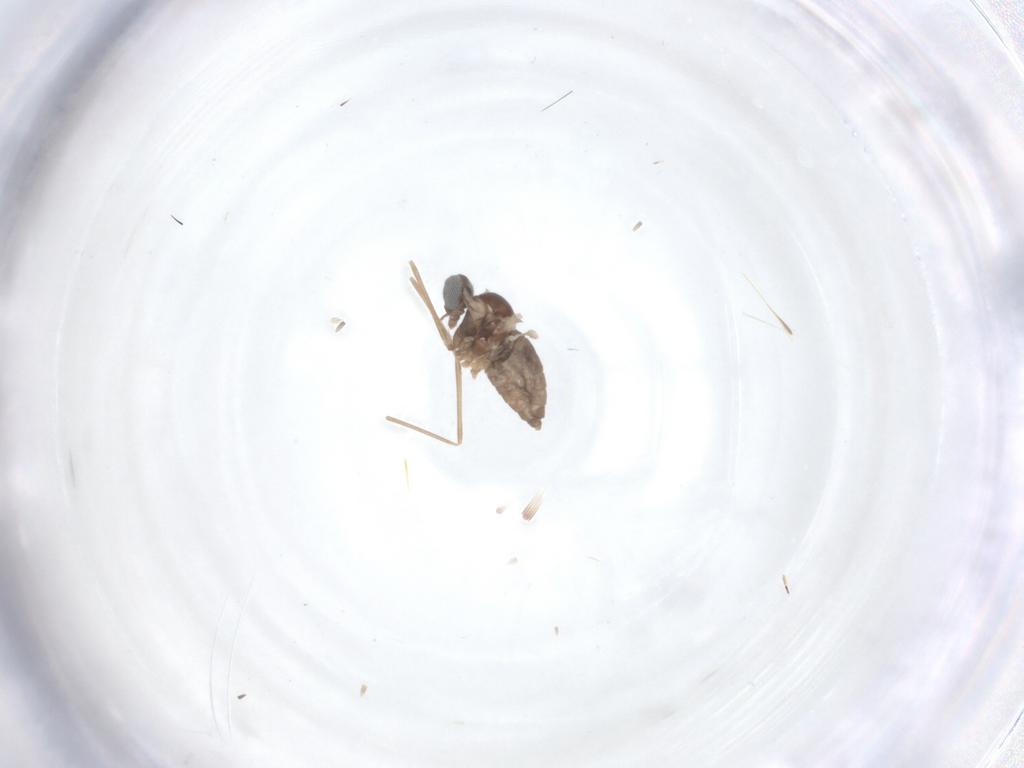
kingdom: Animalia
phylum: Arthropoda
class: Insecta
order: Diptera
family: Cecidomyiidae
